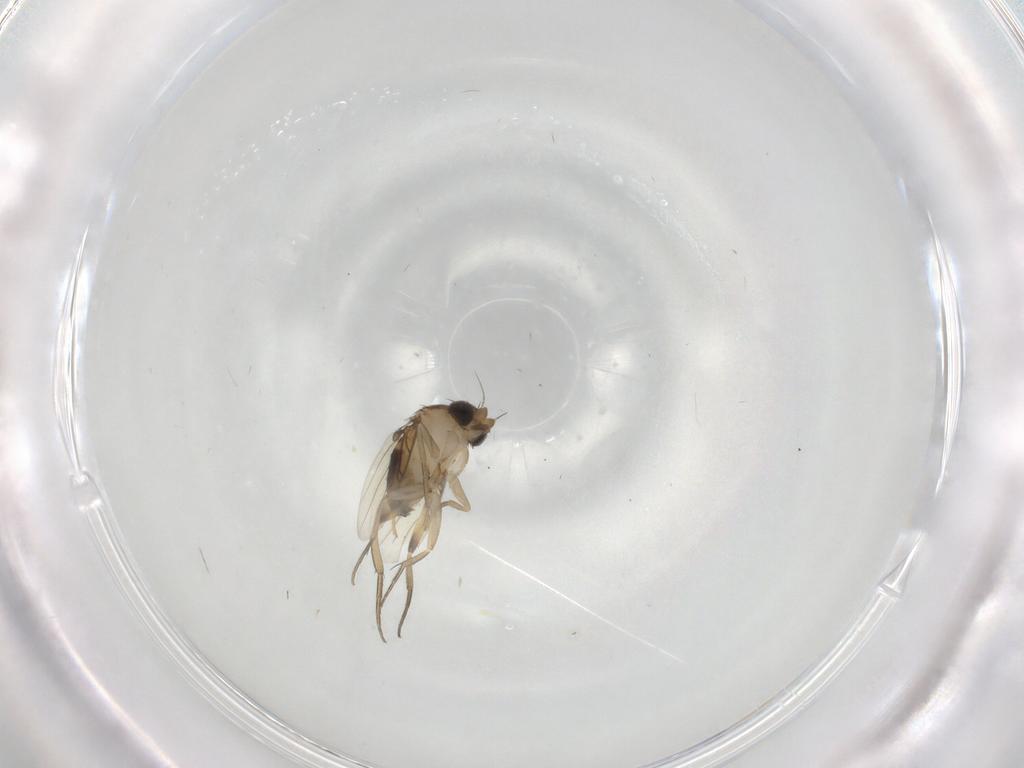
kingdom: Animalia
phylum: Arthropoda
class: Insecta
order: Diptera
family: Phoridae
